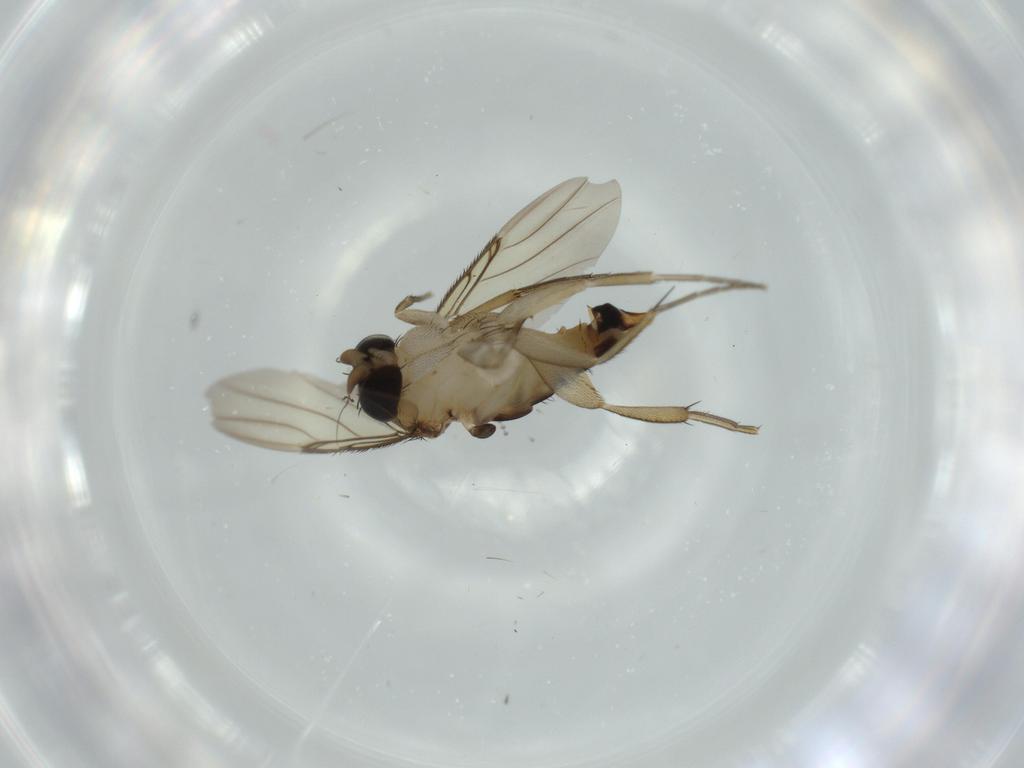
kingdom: Animalia
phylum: Arthropoda
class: Insecta
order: Diptera
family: Phoridae
